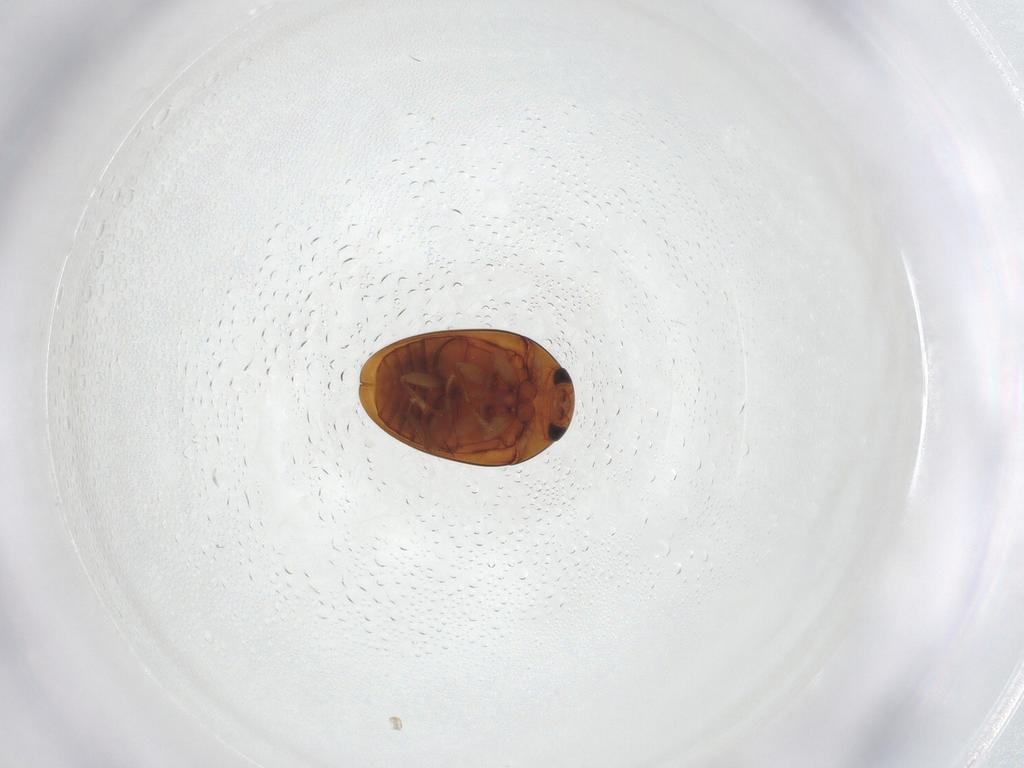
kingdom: Animalia
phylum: Arthropoda
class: Insecta
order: Coleoptera
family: Phalacridae
